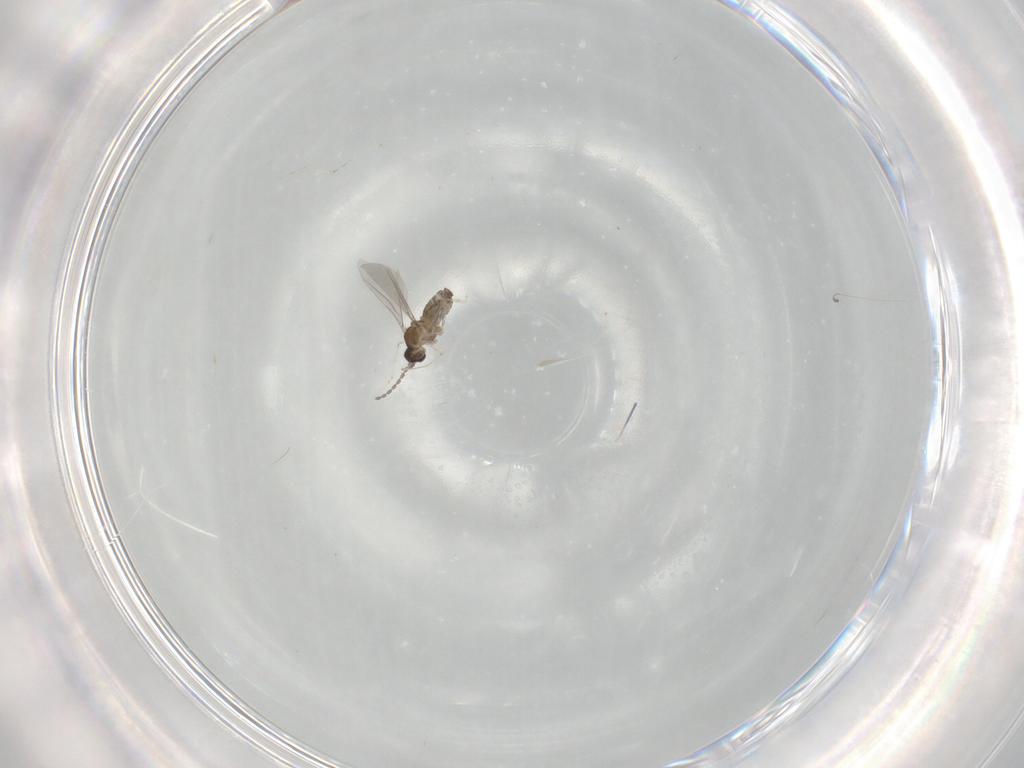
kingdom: Animalia
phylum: Arthropoda
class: Insecta
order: Diptera
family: Cecidomyiidae
